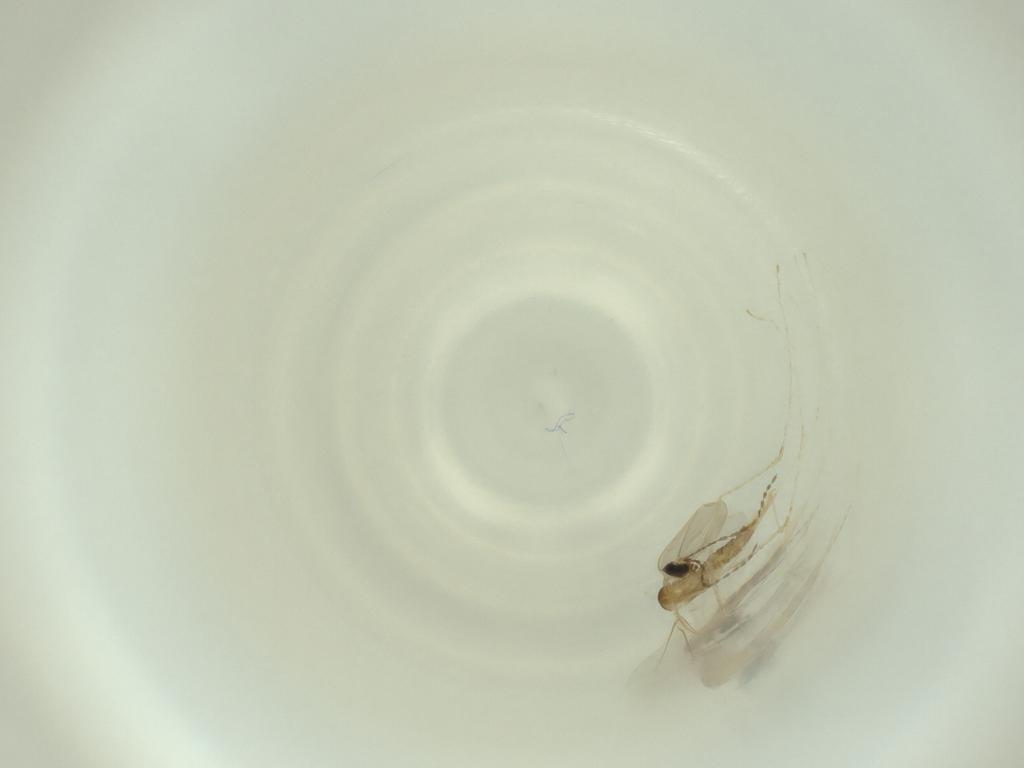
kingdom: Animalia
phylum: Arthropoda
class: Insecta
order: Diptera
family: Cecidomyiidae
